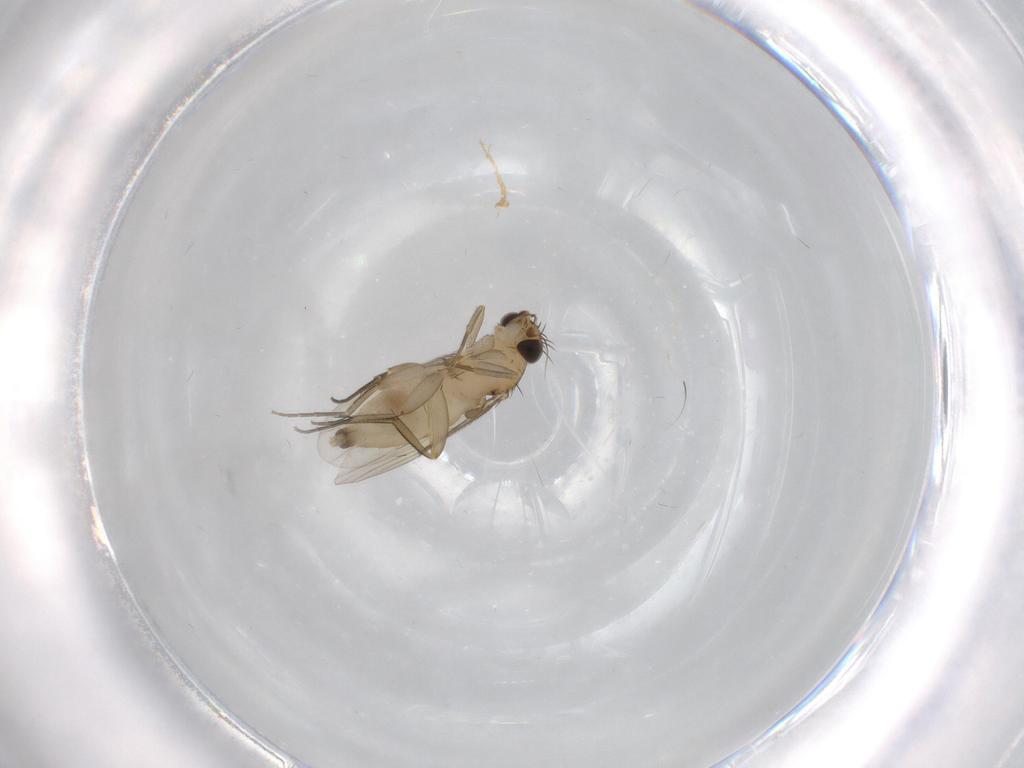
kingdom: Animalia
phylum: Arthropoda
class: Insecta
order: Diptera
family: Phoridae
